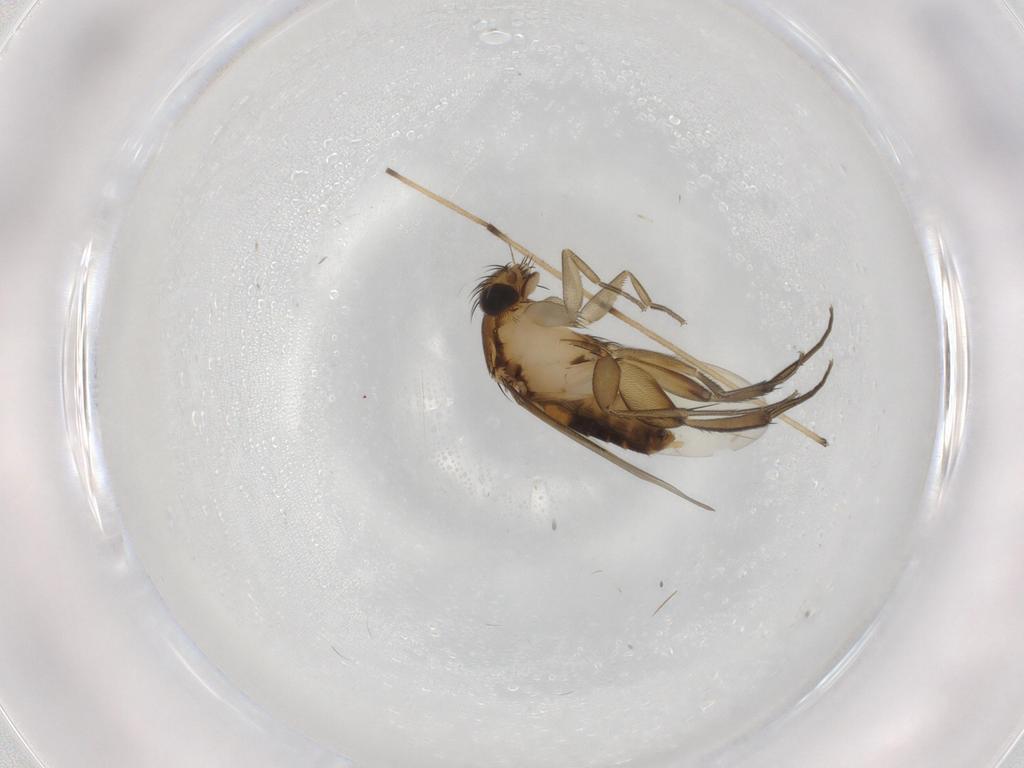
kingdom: Animalia
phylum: Arthropoda
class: Insecta
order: Diptera
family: Phoridae
